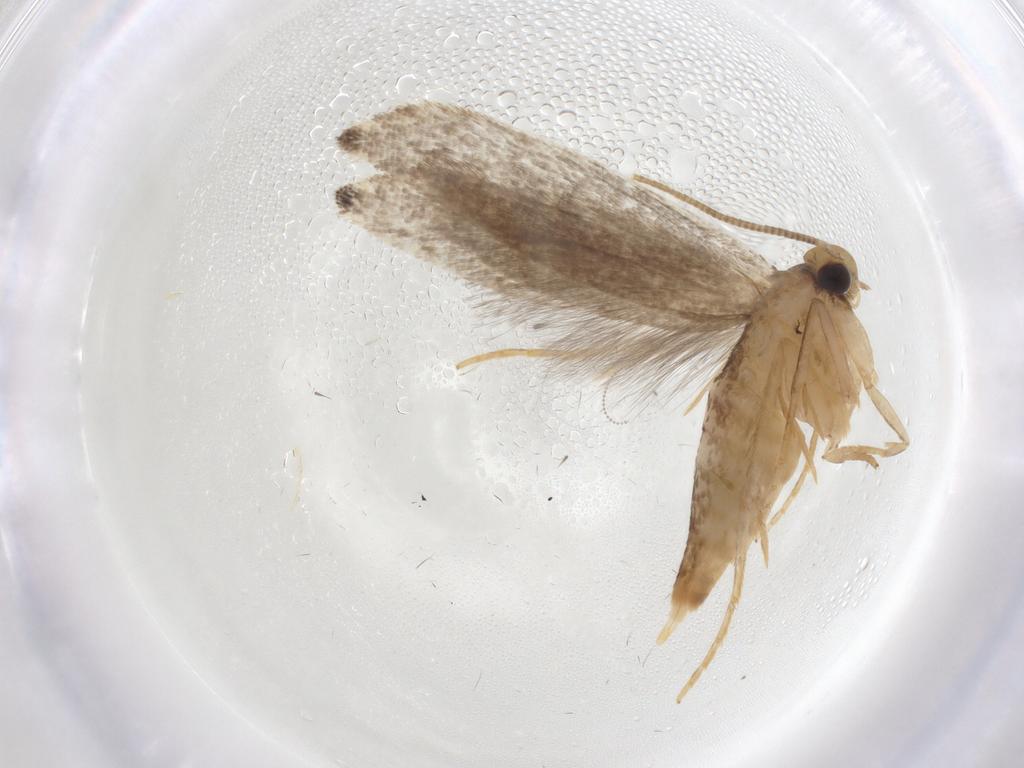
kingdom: Animalia
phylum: Arthropoda
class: Insecta
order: Lepidoptera
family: Tineidae
